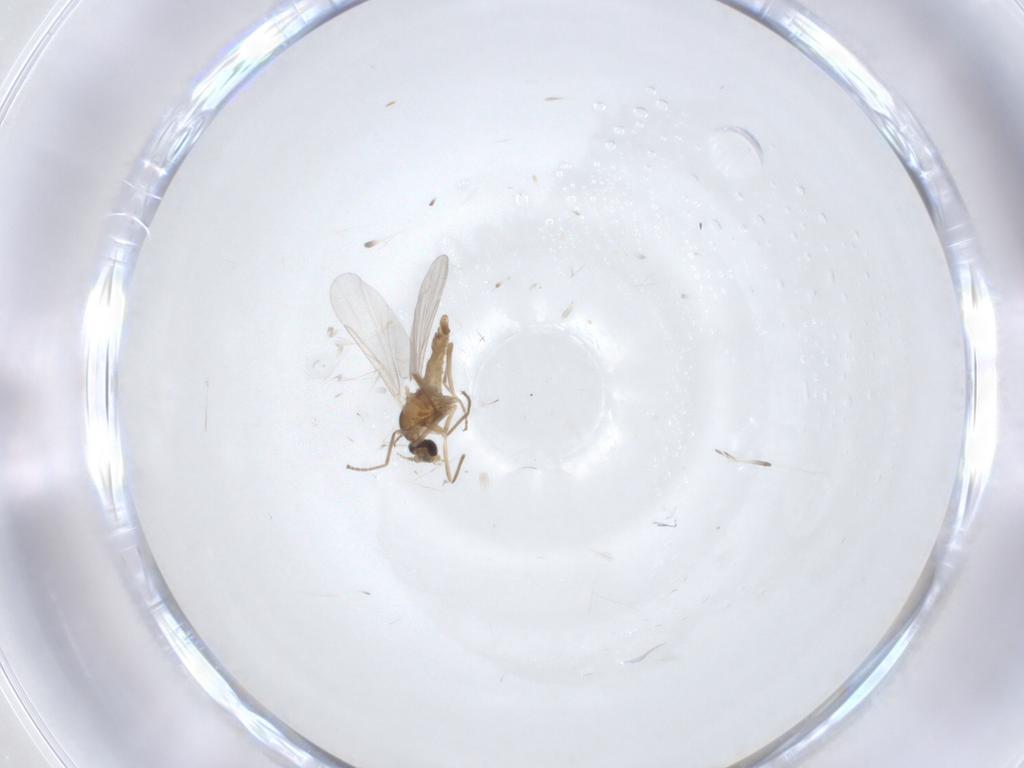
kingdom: Animalia
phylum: Arthropoda
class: Insecta
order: Diptera
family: Cecidomyiidae
